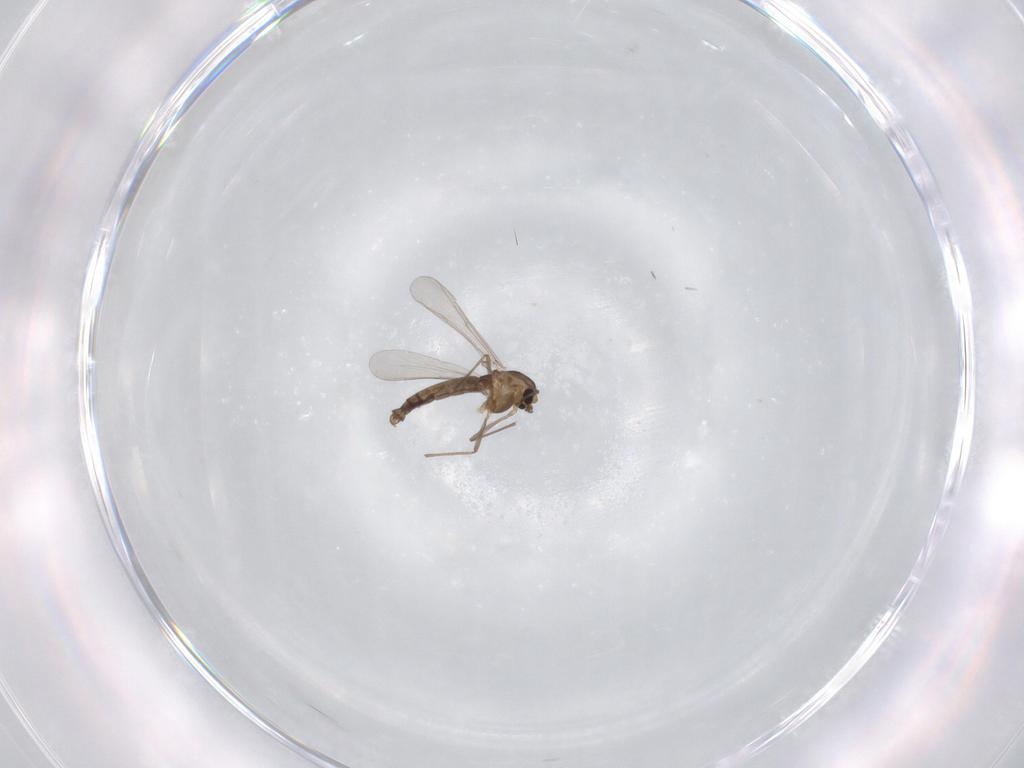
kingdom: Animalia
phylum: Arthropoda
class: Insecta
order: Diptera
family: Chironomidae
